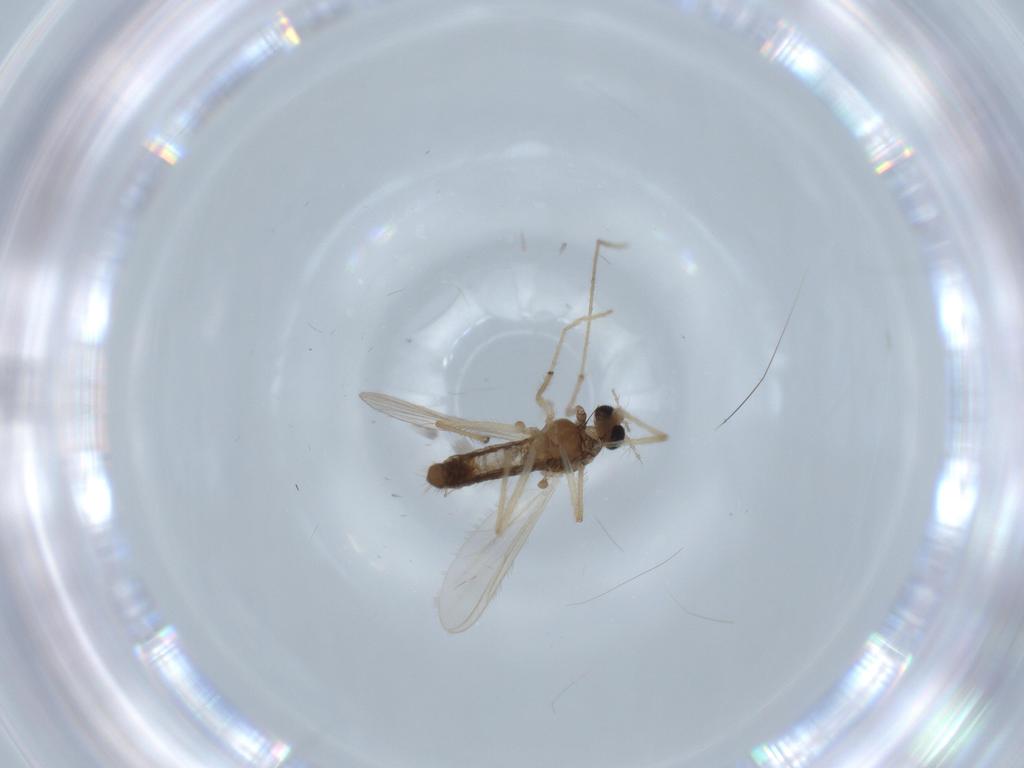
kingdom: Animalia
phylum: Arthropoda
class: Insecta
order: Diptera
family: Chironomidae
